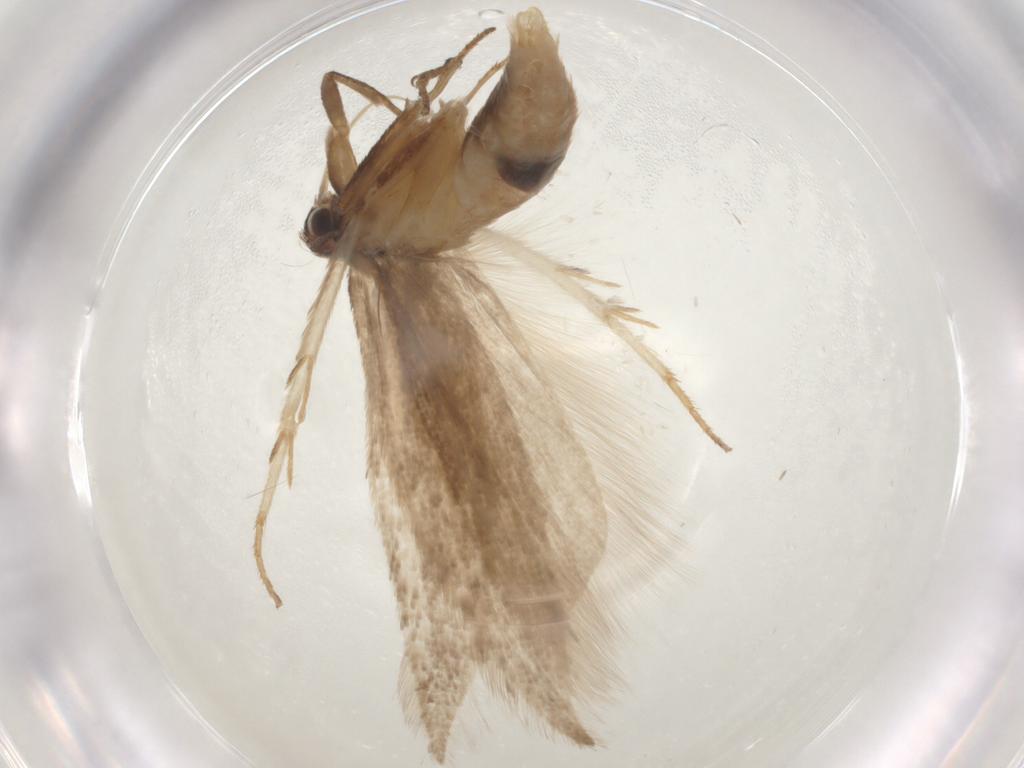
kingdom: Animalia
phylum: Arthropoda
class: Insecta
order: Lepidoptera
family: Gelechiidae
